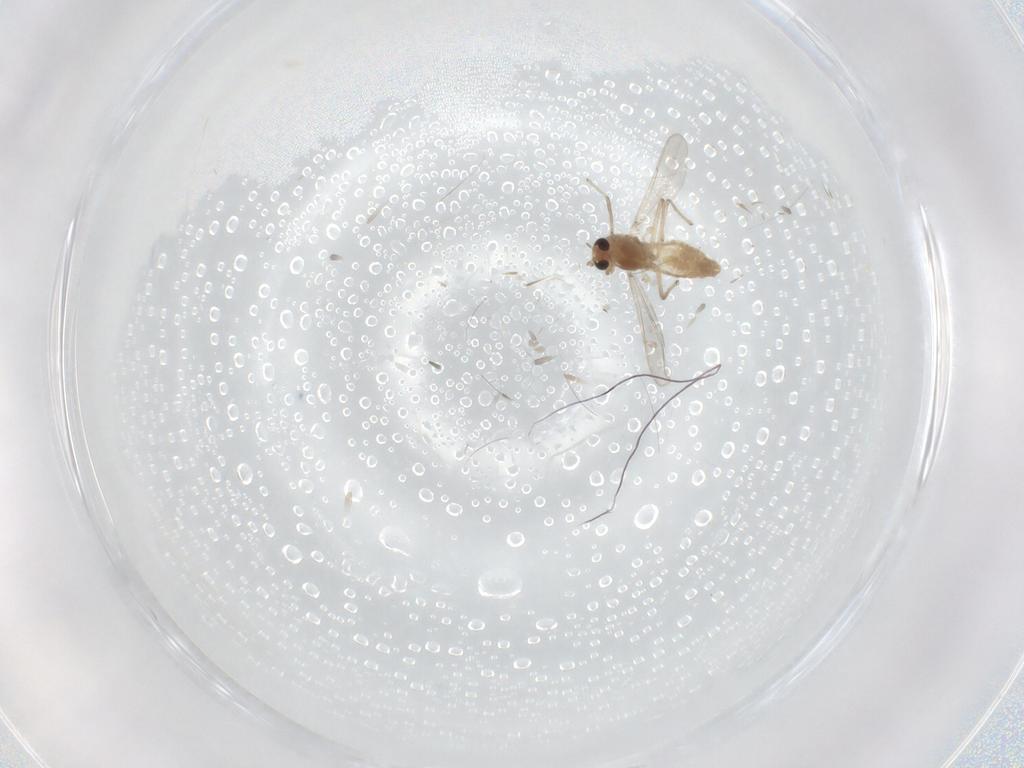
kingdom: Animalia
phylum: Arthropoda
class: Insecta
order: Diptera
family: Chironomidae
